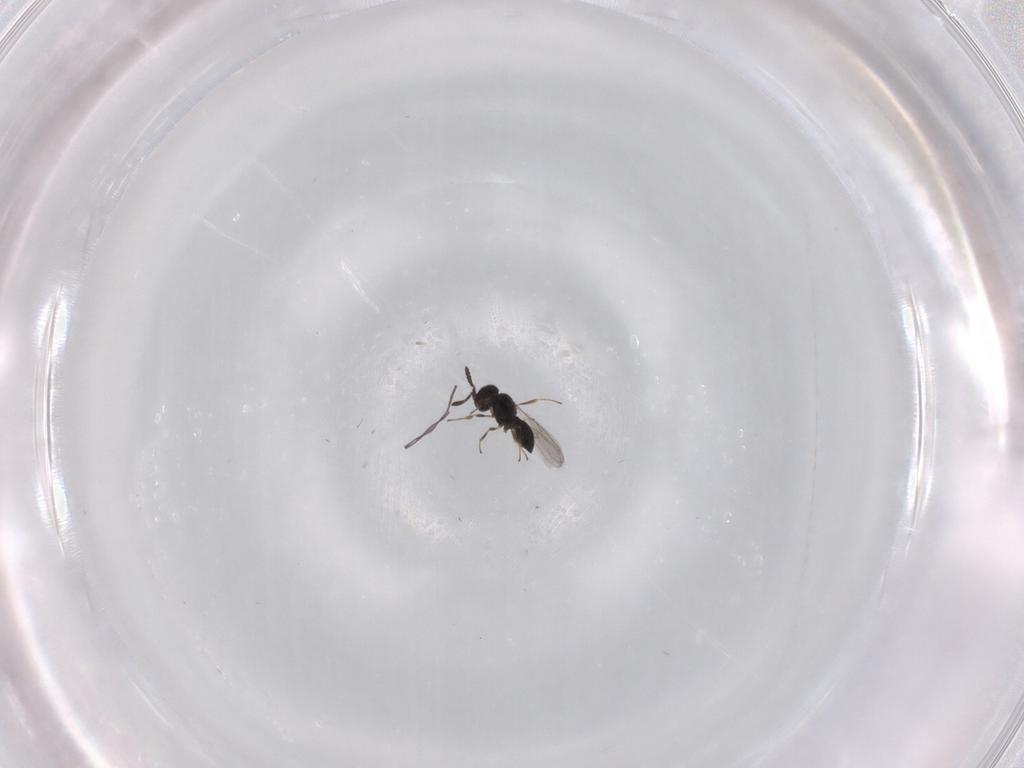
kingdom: Animalia
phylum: Arthropoda
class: Insecta
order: Hymenoptera
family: Scelionidae
